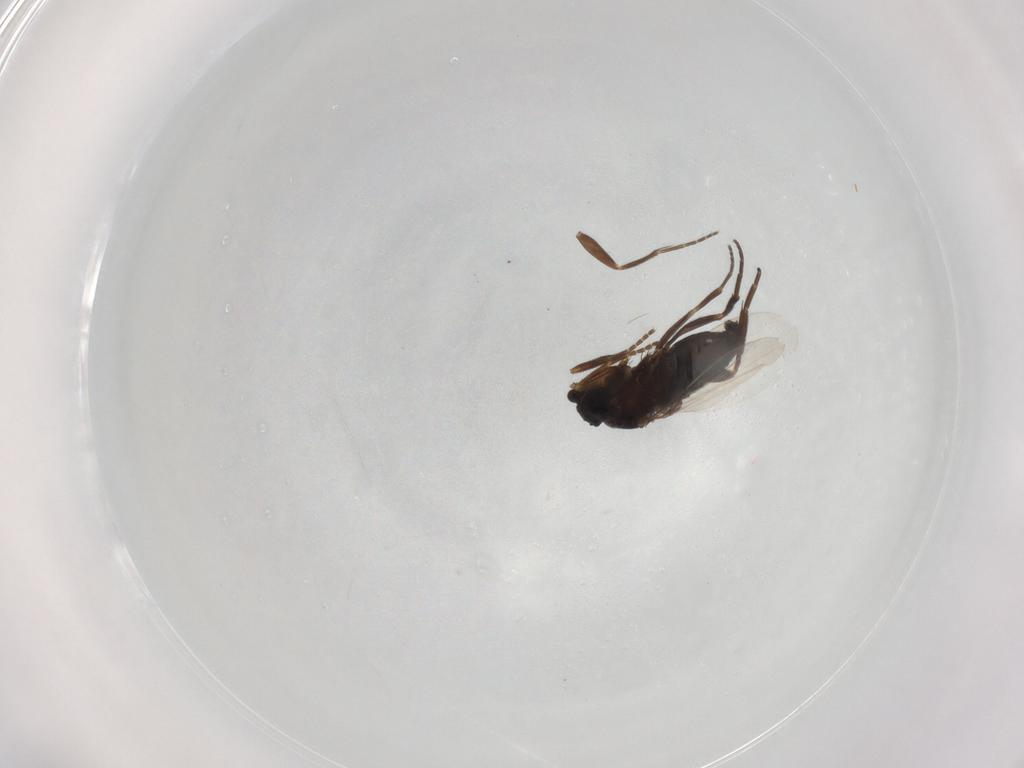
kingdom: Animalia
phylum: Arthropoda
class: Insecta
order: Diptera
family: Phoridae
